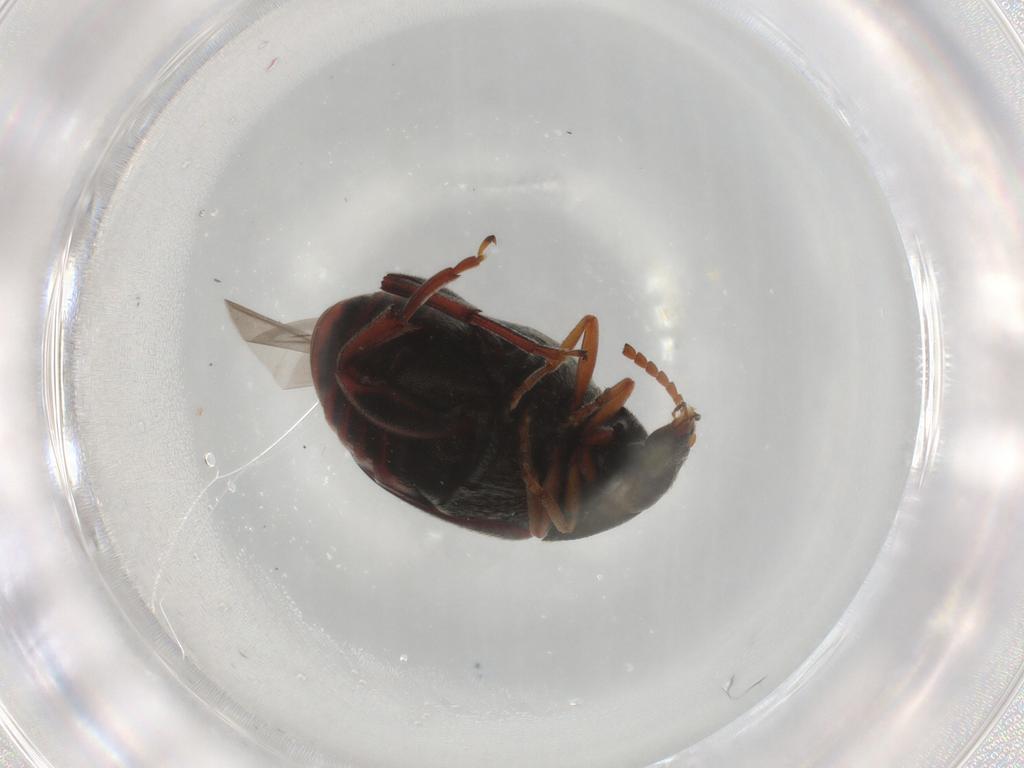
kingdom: Animalia
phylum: Arthropoda
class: Insecta
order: Coleoptera
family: Chrysomelidae
